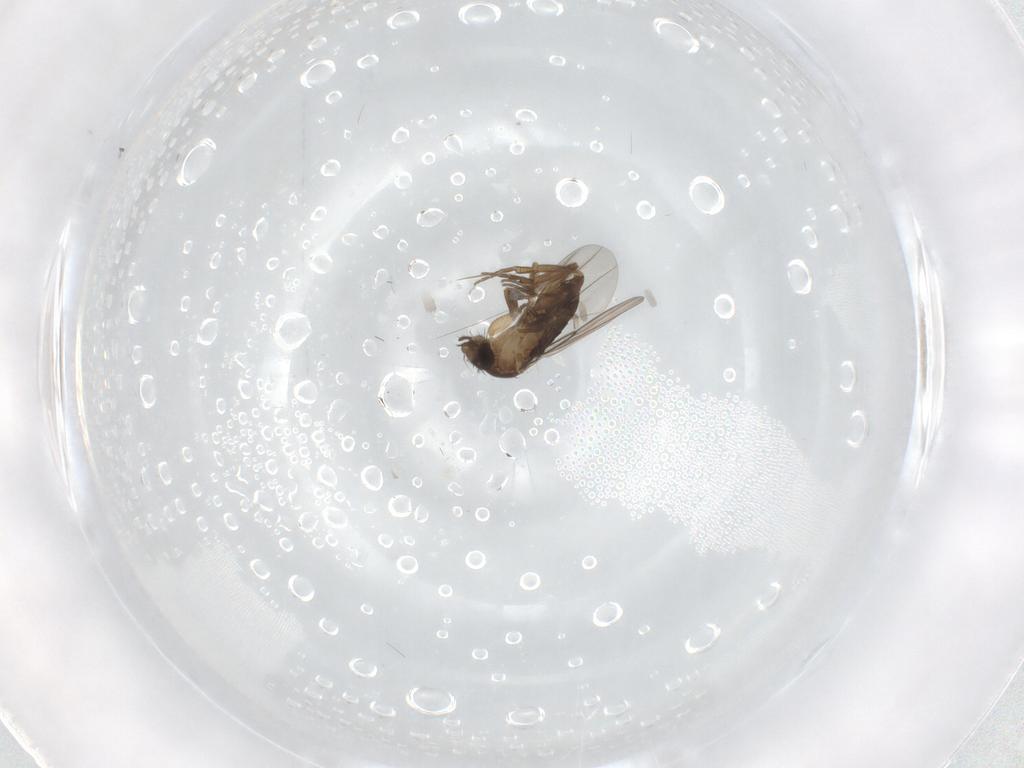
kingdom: Animalia
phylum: Arthropoda
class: Insecta
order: Diptera
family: Phoridae
